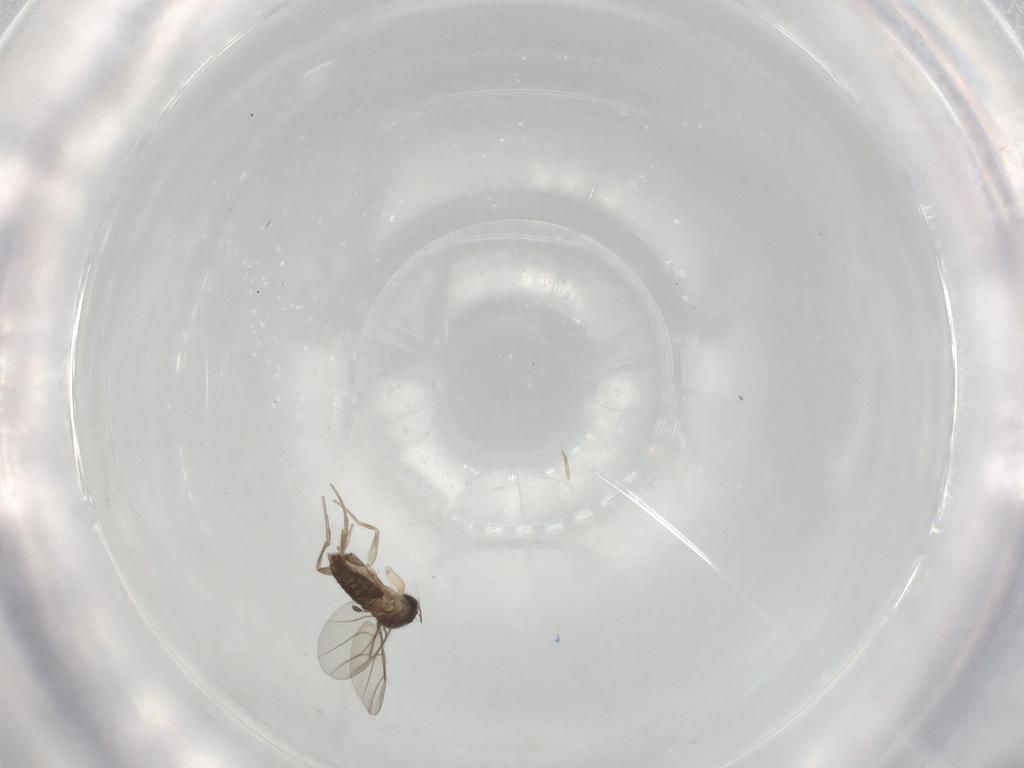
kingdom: Animalia
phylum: Arthropoda
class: Insecta
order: Diptera
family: Phoridae
